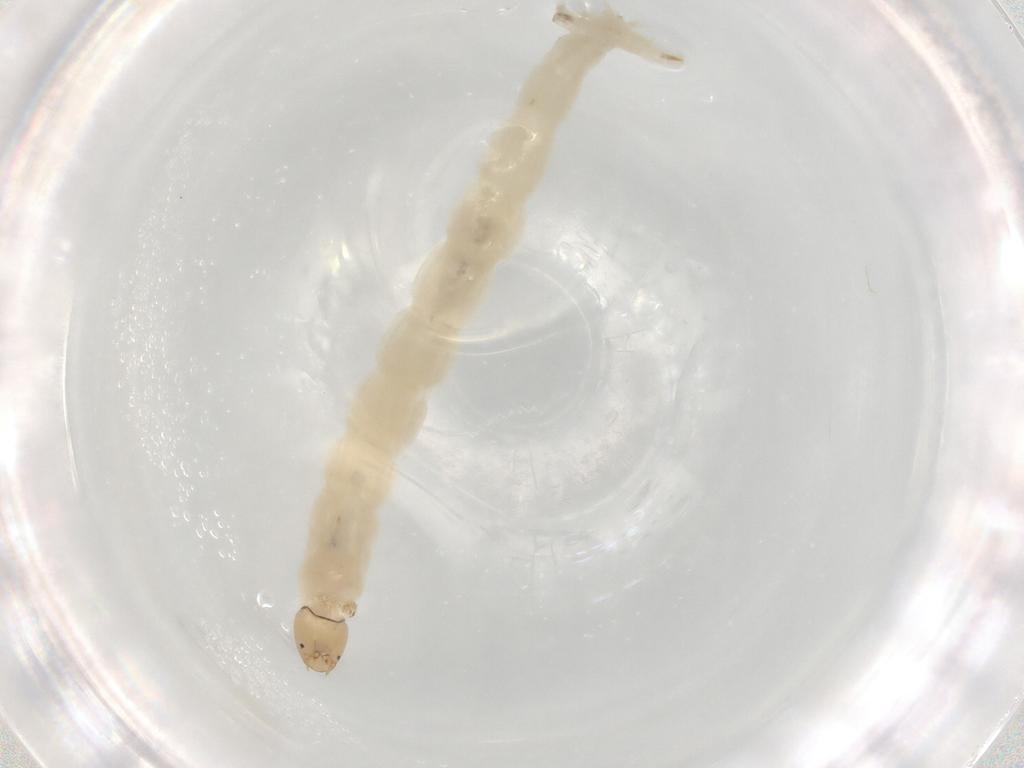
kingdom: Animalia
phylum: Arthropoda
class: Insecta
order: Diptera
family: Chironomidae
